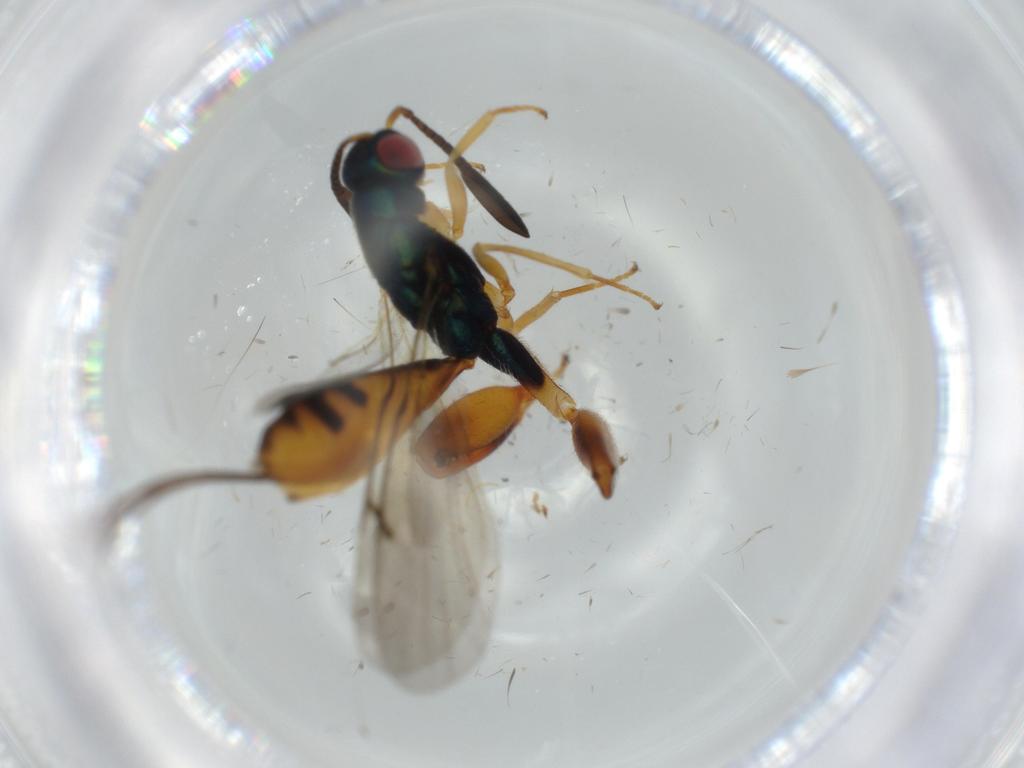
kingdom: Animalia
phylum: Arthropoda
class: Insecta
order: Hymenoptera
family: Torymidae
